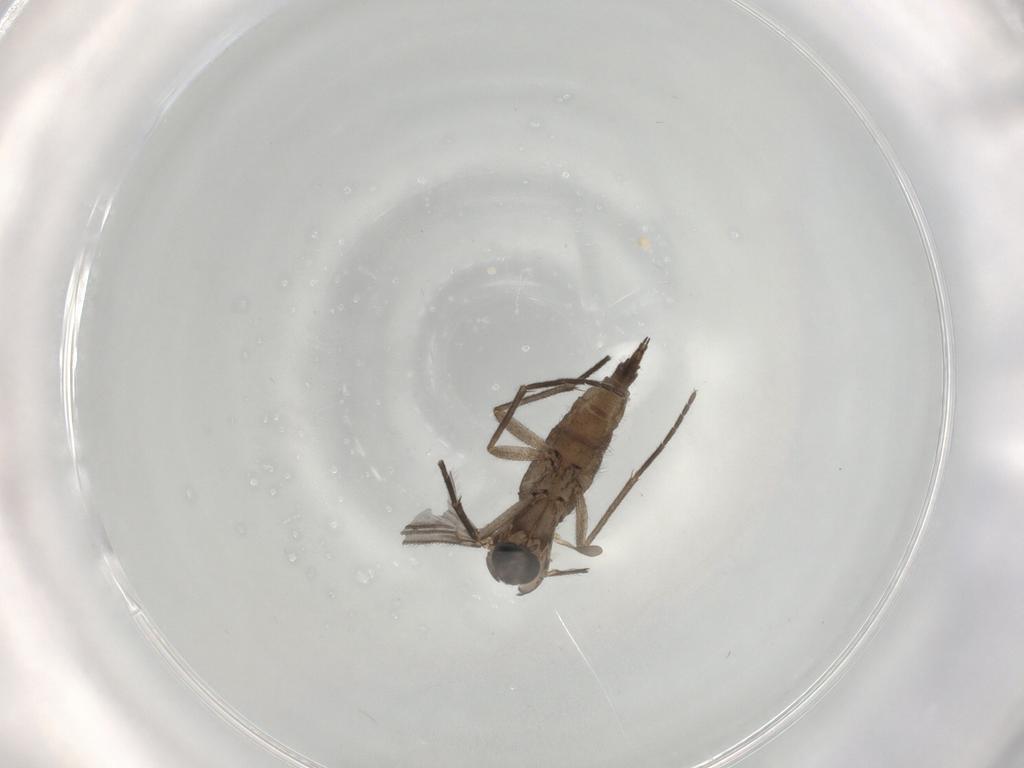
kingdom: Animalia
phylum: Arthropoda
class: Insecta
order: Diptera
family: Sciaridae
